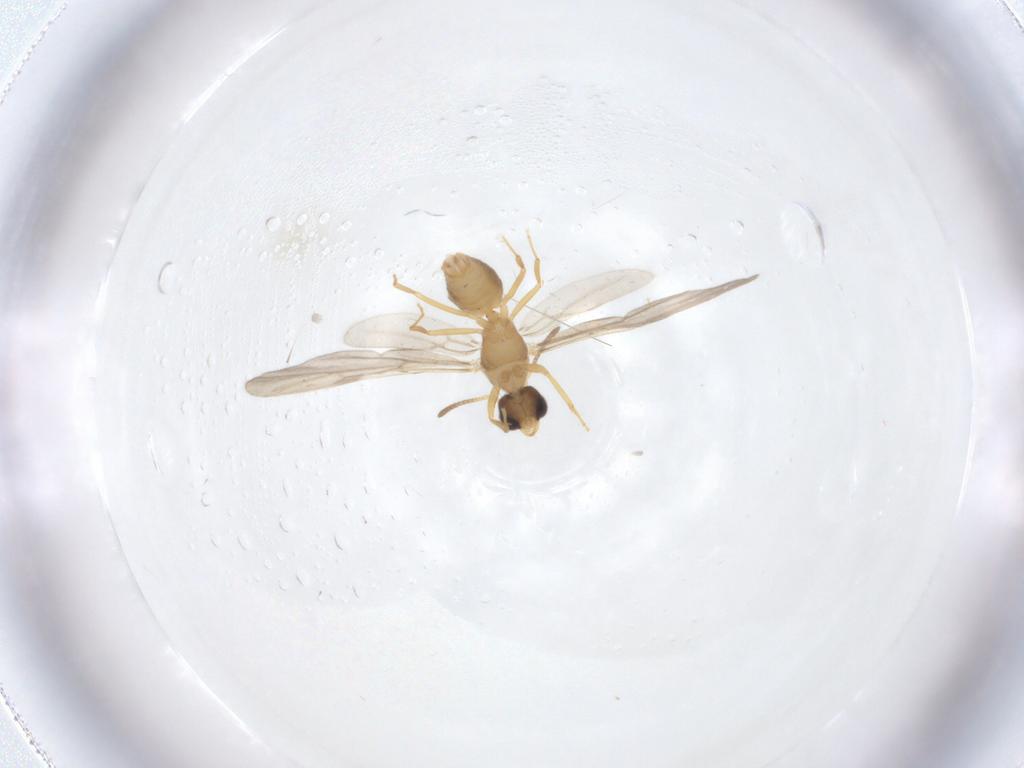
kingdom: Animalia
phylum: Arthropoda
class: Insecta
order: Hymenoptera
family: Formicidae
